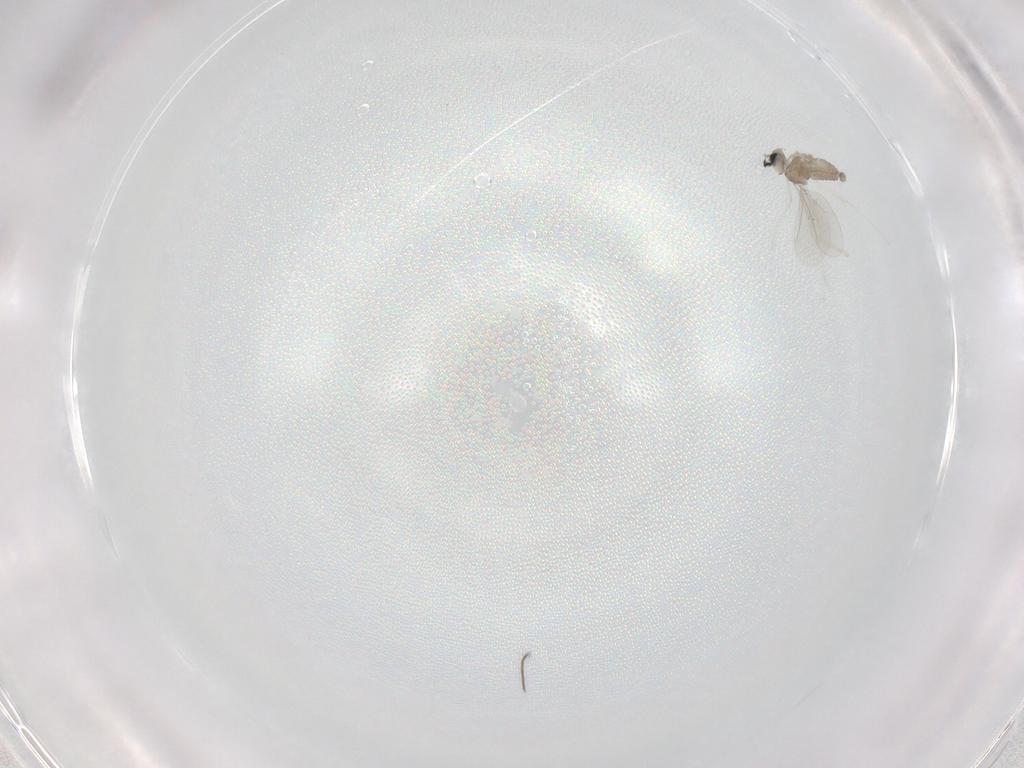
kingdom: Animalia
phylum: Arthropoda
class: Insecta
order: Diptera
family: Cecidomyiidae
